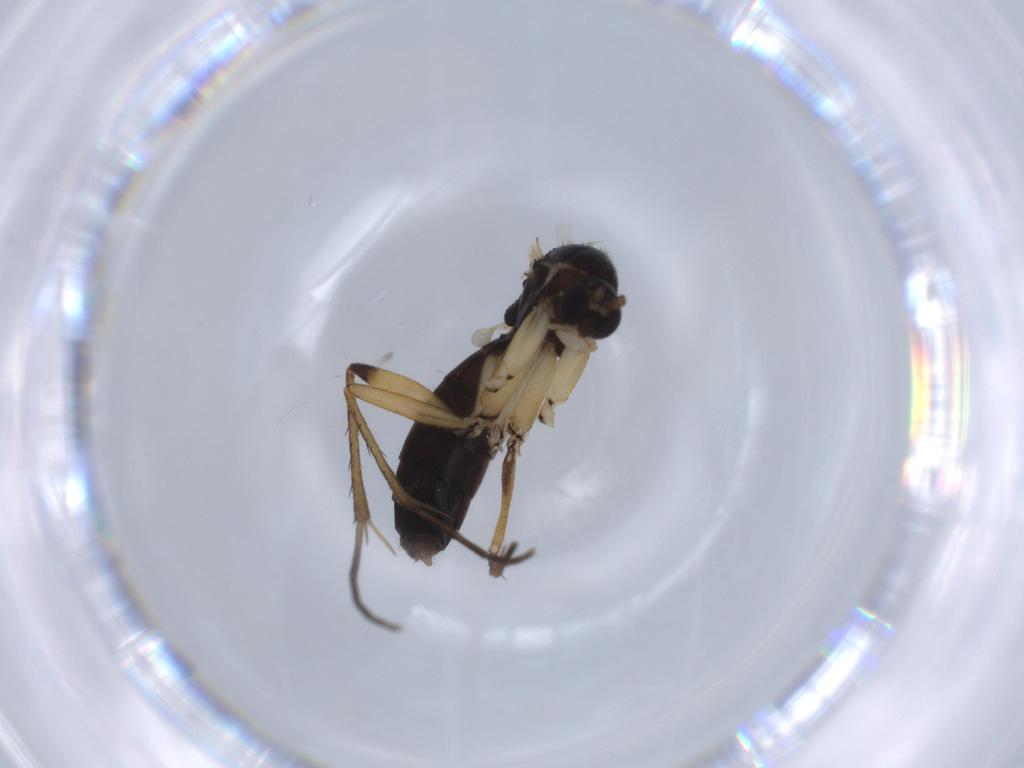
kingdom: Animalia
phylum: Arthropoda
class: Insecta
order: Diptera
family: Mycetophilidae
